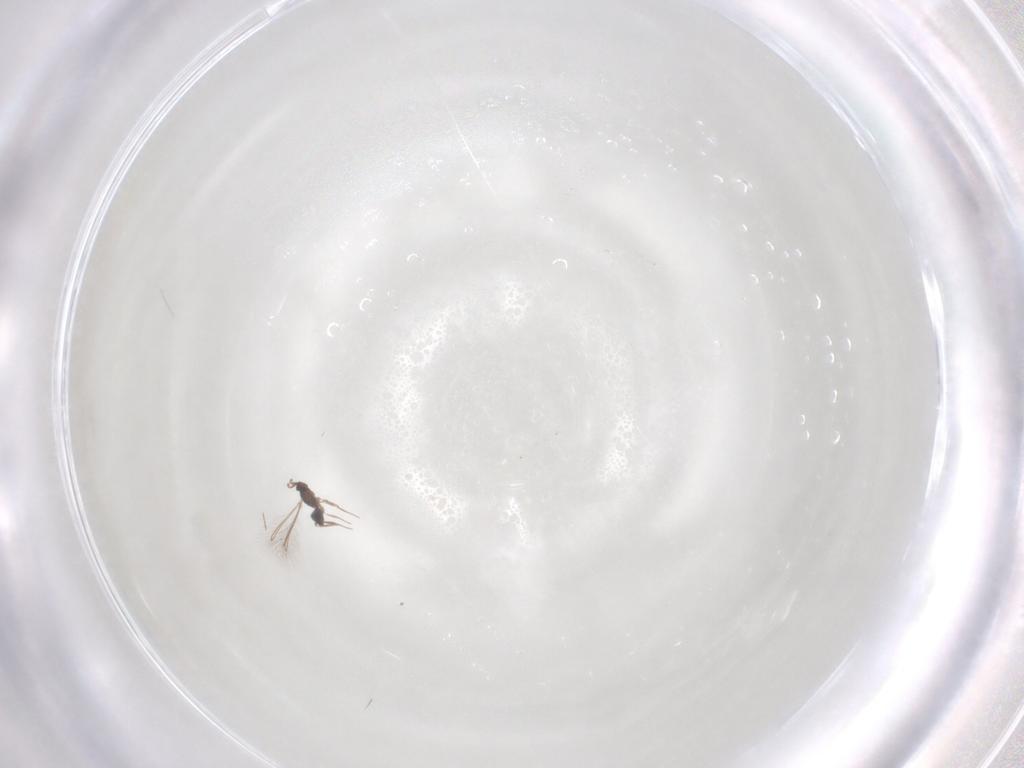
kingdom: Animalia
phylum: Arthropoda
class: Insecta
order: Hymenoptera
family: Mymaridae
